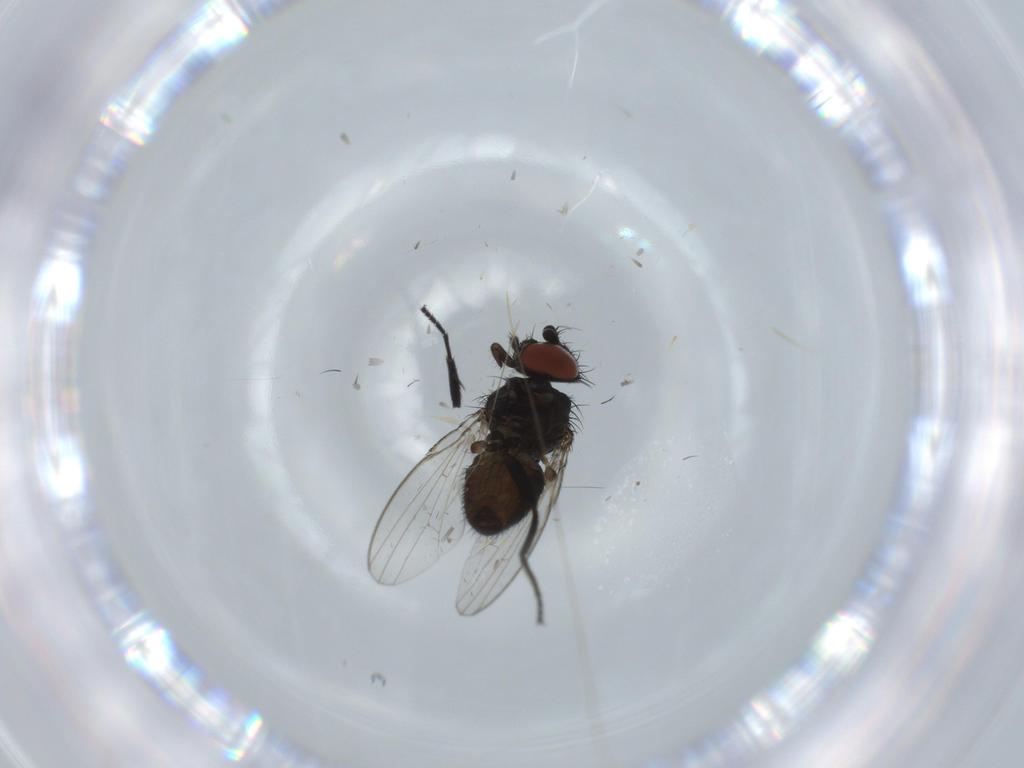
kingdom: Animalia
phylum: Arthropoda
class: Insecta
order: Diptera
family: Milichiidae
